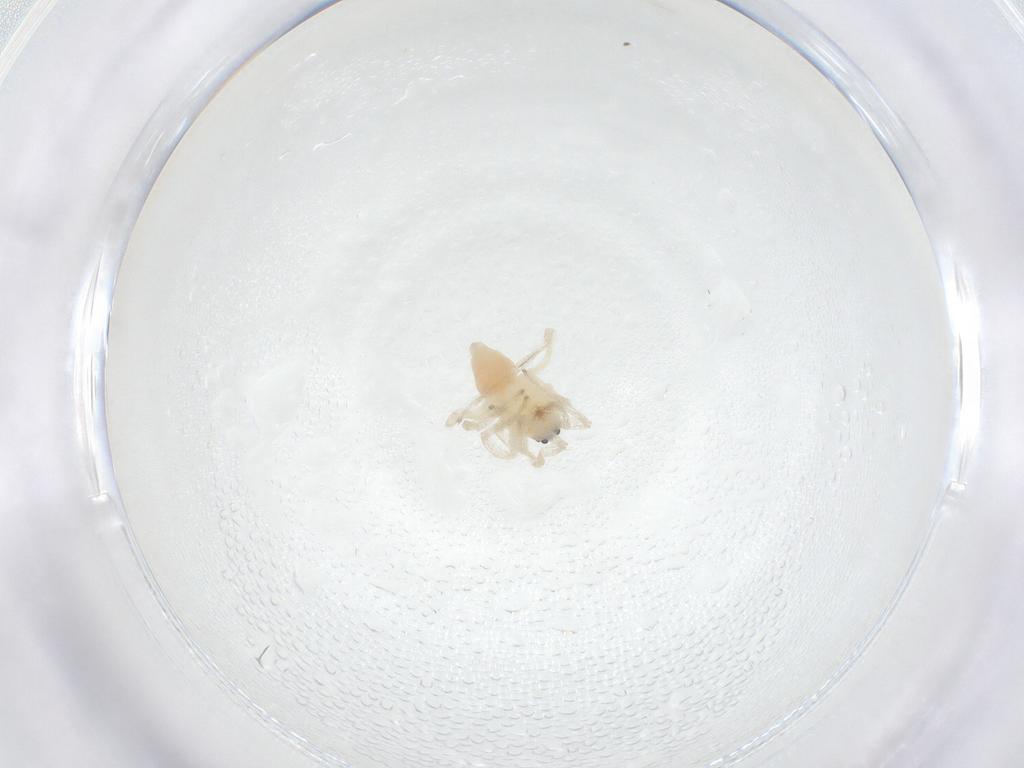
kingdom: Animalia
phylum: Arthropoda
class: Arachnida
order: Araneae
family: Anyphaenidae
